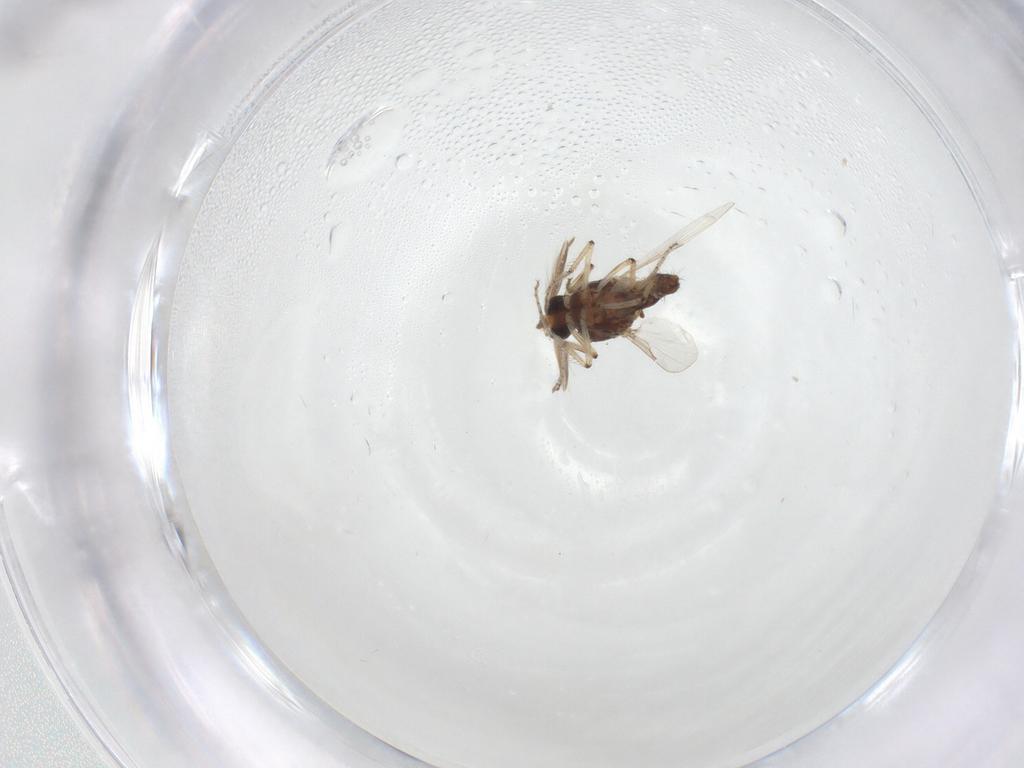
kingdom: Animalia
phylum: Arthropoda
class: Insecta
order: Diptera
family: Ceratopogonidae
